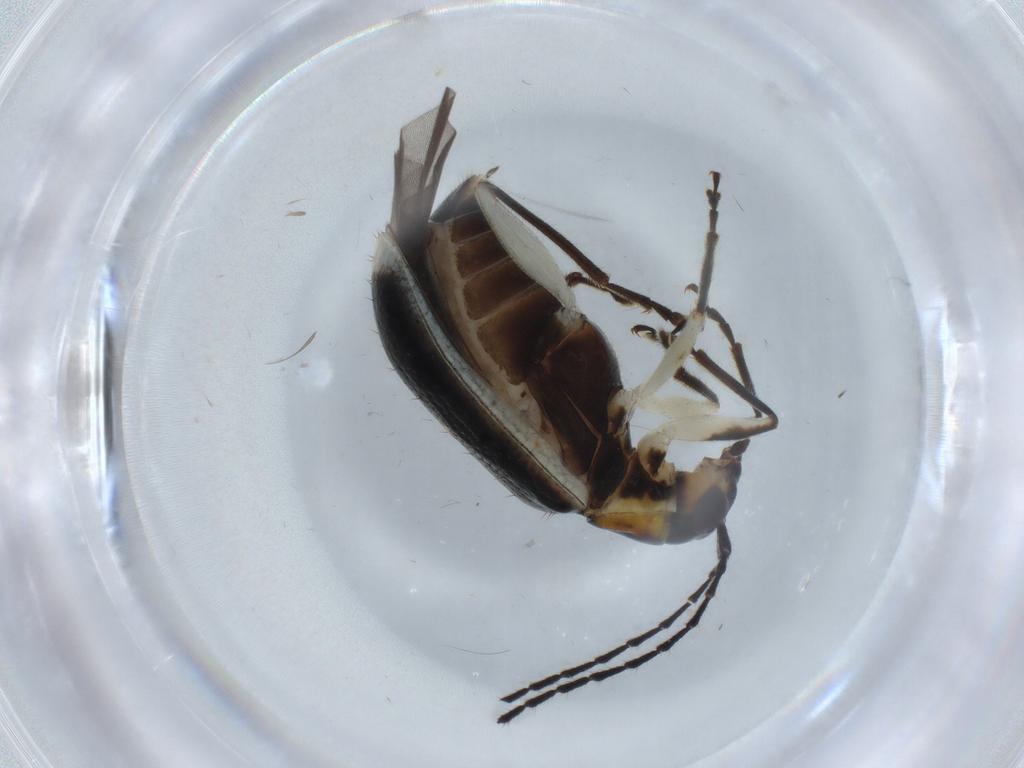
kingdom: Animalia
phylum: Arthropoda
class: Insecta
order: Coleoptera
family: Chrysomelidae
